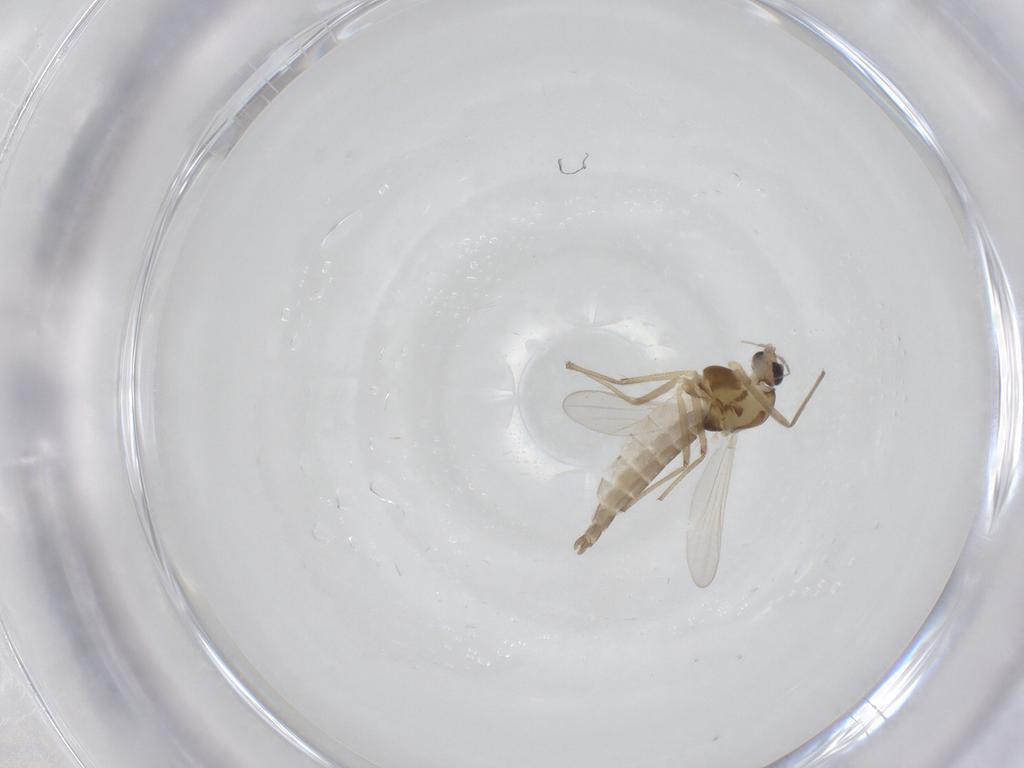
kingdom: Animalia
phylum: Arthropoda
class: Insecta
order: Diptera
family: Chironomidae
